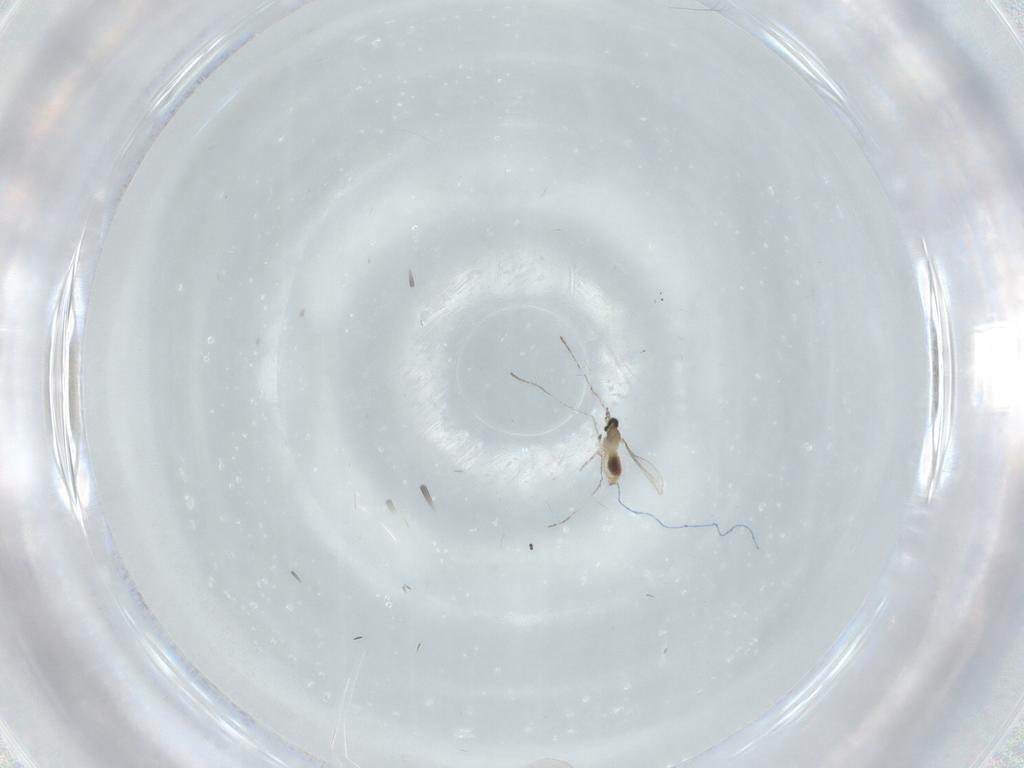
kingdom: Animalia
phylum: Arthropoda
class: Insecta
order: Diptera
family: Cecidomyiidae
